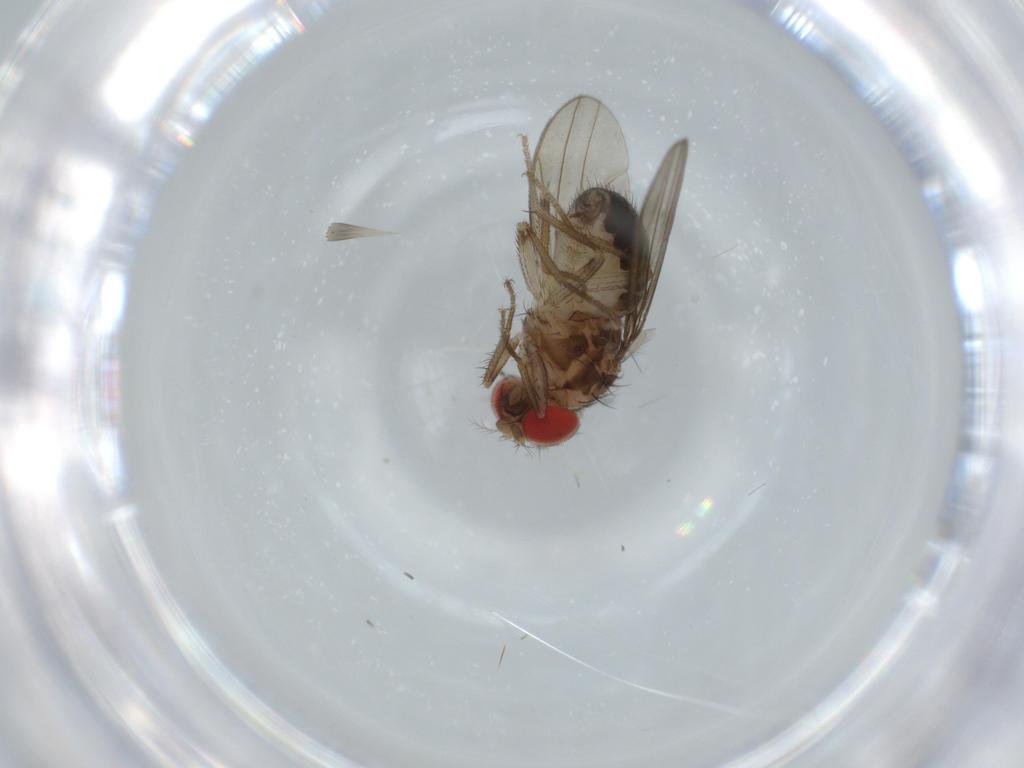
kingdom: Animalia
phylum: Arthropoda
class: Insecta
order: Diptera
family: Drosophilidae
